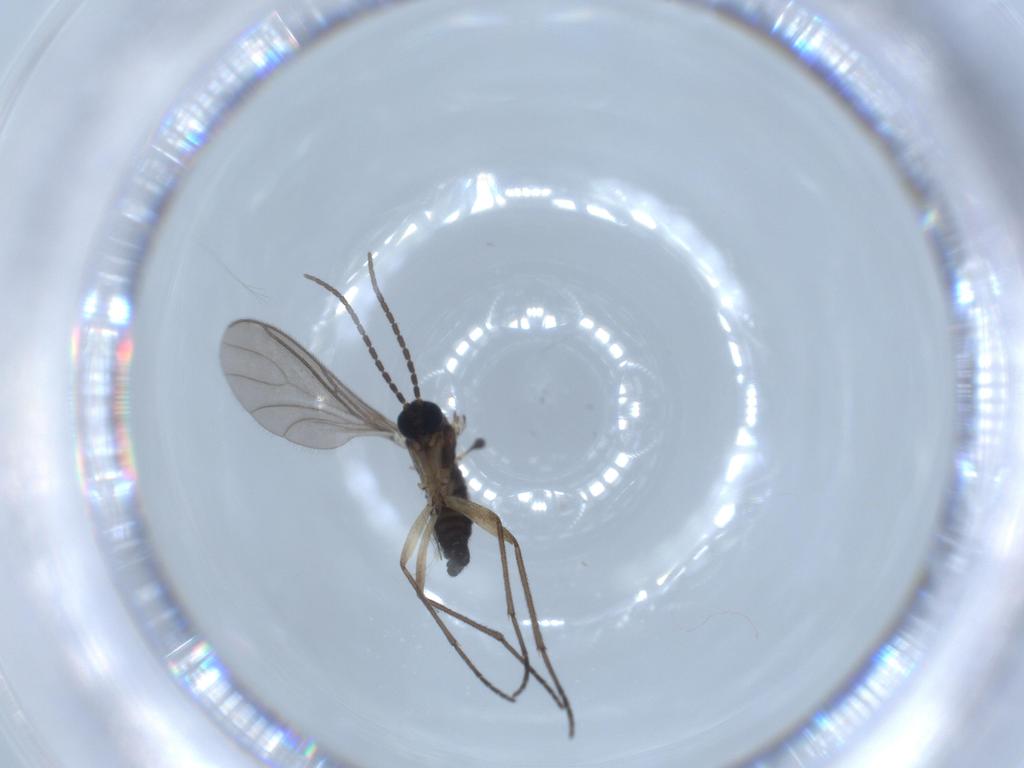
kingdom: Animalia
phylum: Arthropoda
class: Insecta
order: Diptera
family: Sciaridae
